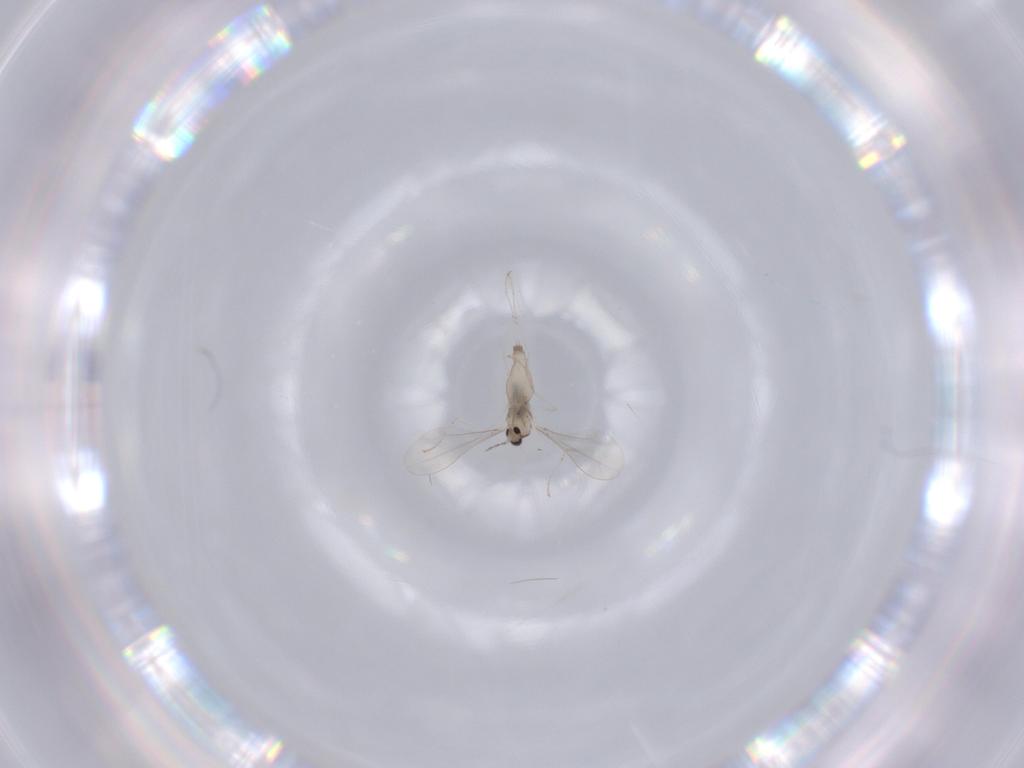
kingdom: Animalia
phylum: Arthropoda
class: Insecta
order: Diptera
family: Cecidomyiidae
